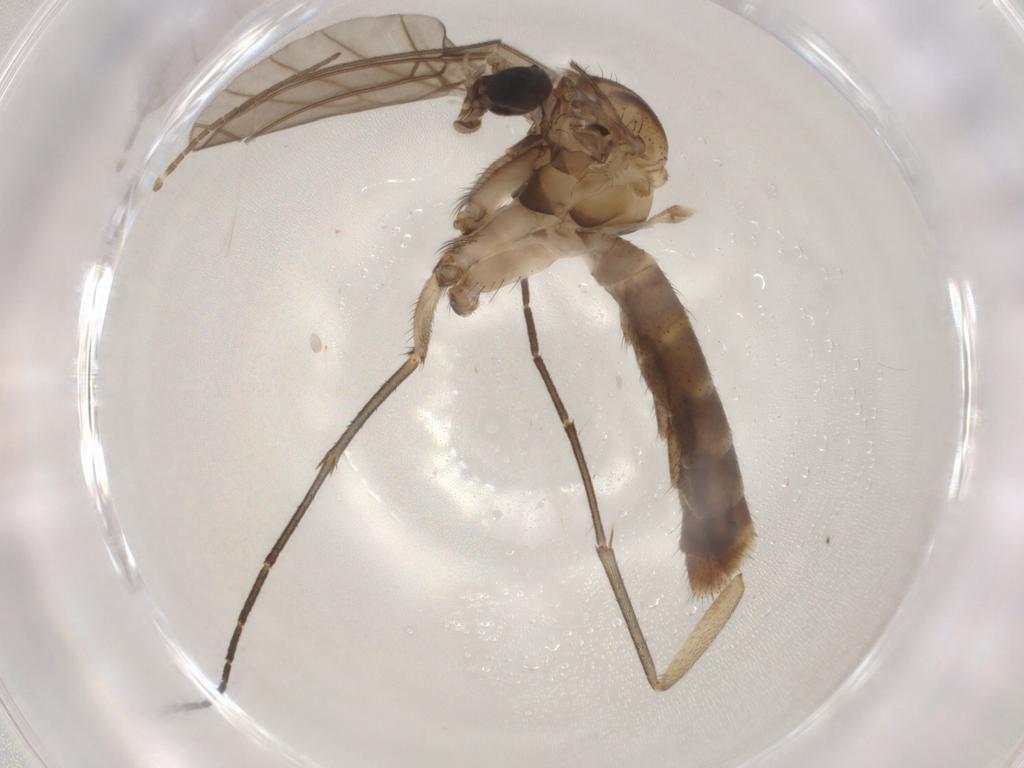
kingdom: Animalia
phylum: Arthropoda
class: Insecta
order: Diptera
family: Mycetophilidae
